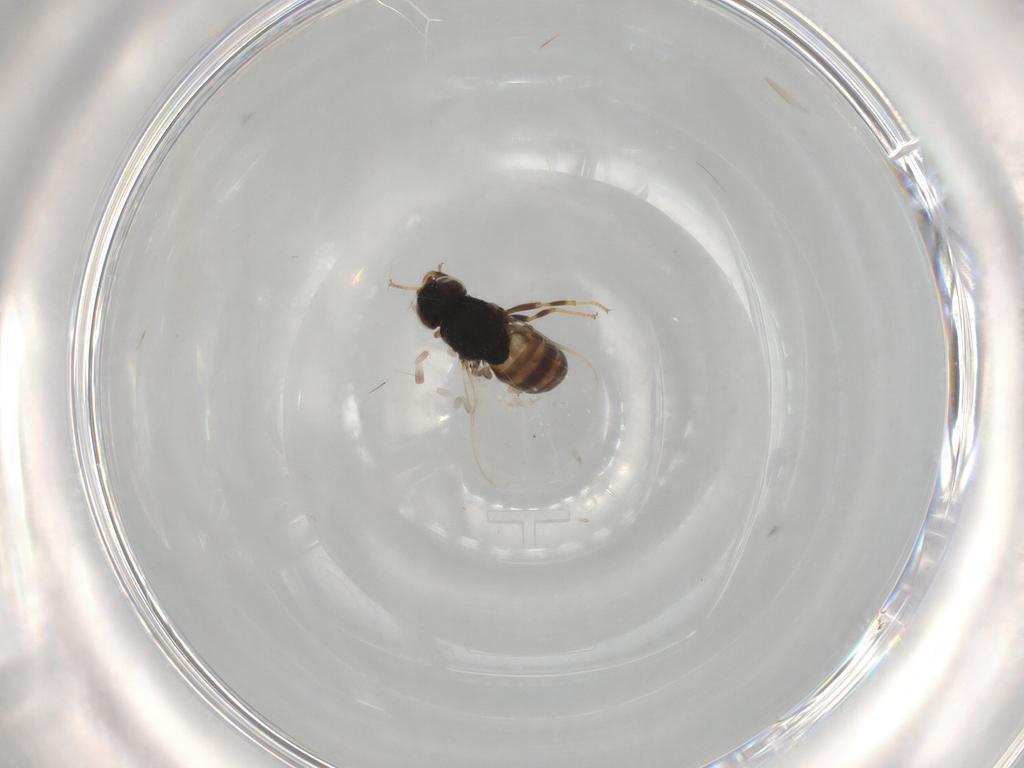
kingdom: Animalia
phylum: Arthropoda
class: Insecta
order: Diptera
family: Chloropidae
